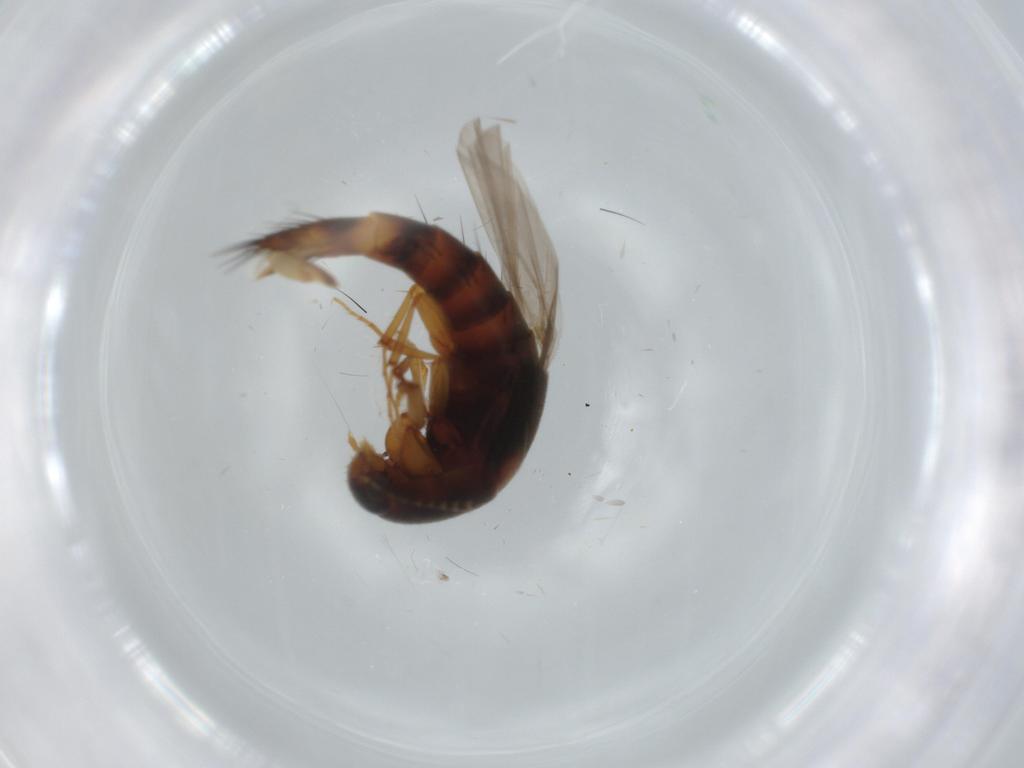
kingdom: Animalia
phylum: Arthropoda
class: Insecta
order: Coleoptera
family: Staphylinidae
